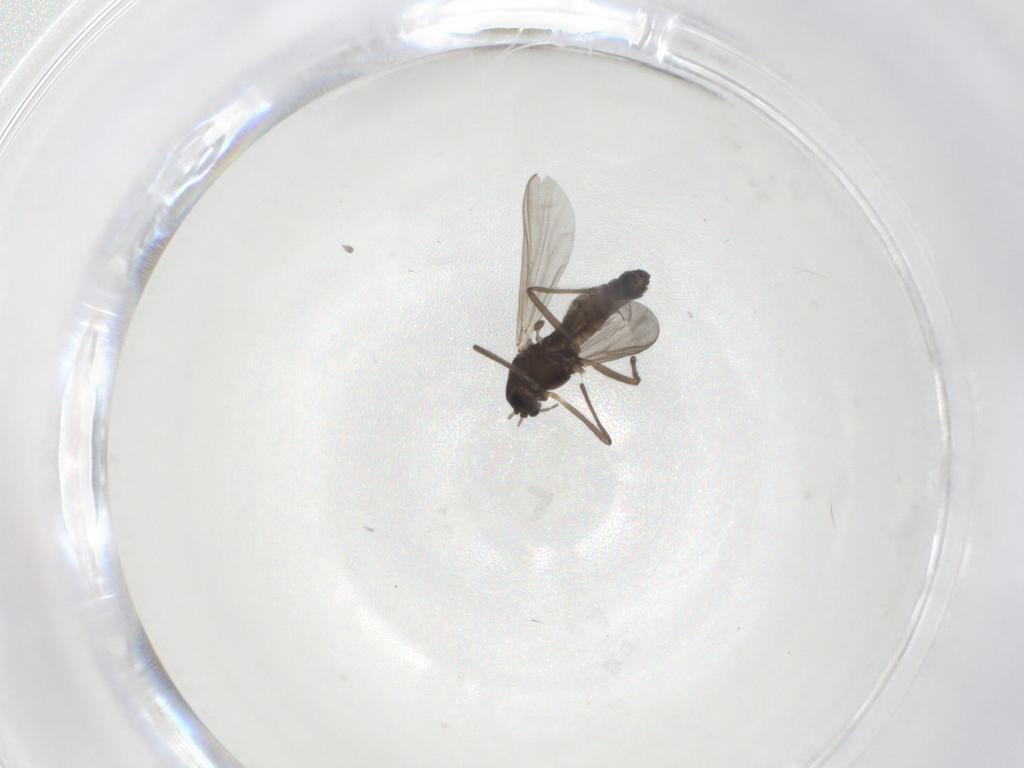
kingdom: Animalia
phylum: Arthropoda
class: Insecta
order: Diptera
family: Chironomidae
